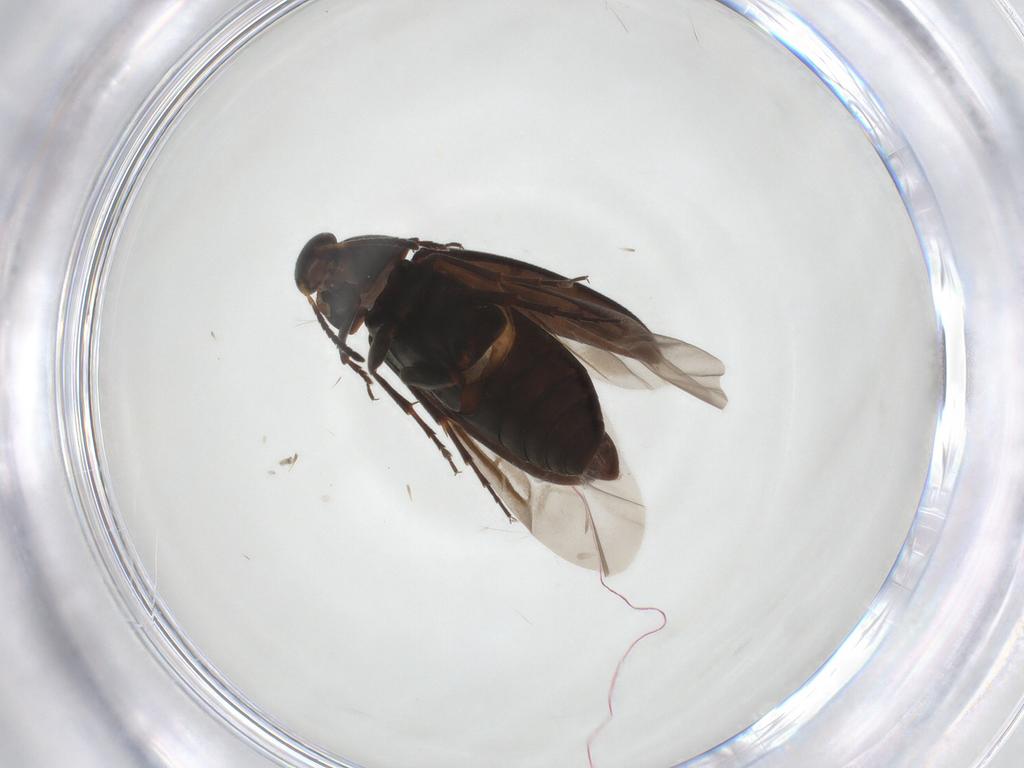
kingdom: Animalia
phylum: Arthropoda
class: Insecta
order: Coleoptera
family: Scraptiidae
